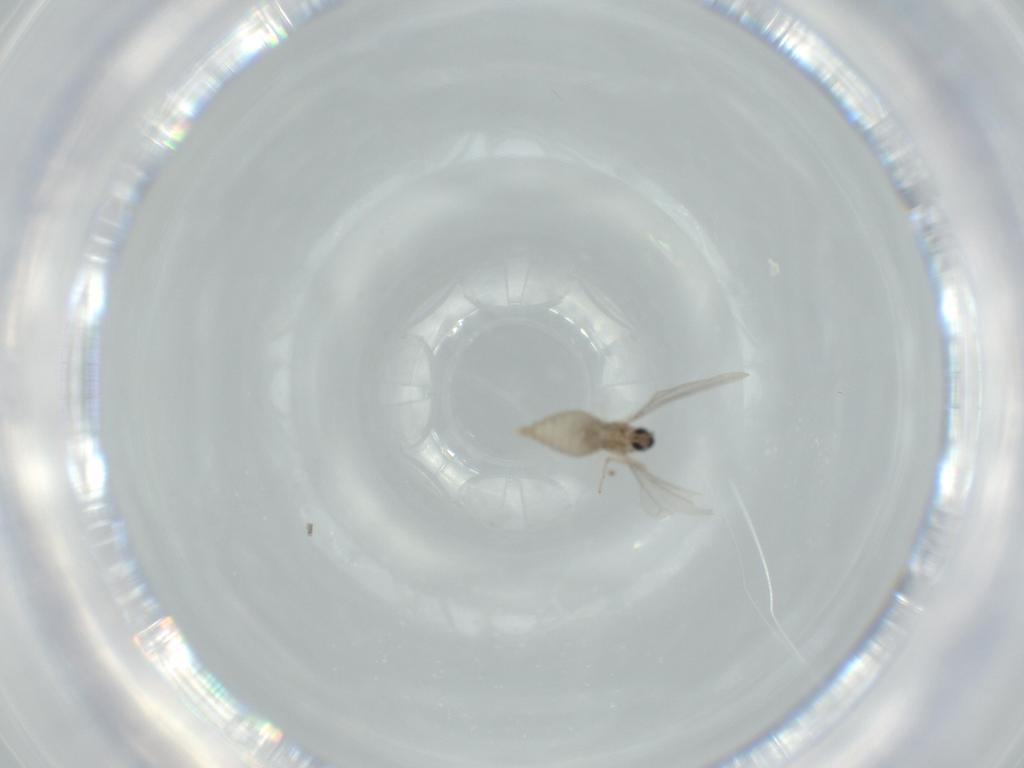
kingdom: Animalia
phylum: Arthropoda
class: Insecta
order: Diptera
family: Cecidomyiidae
